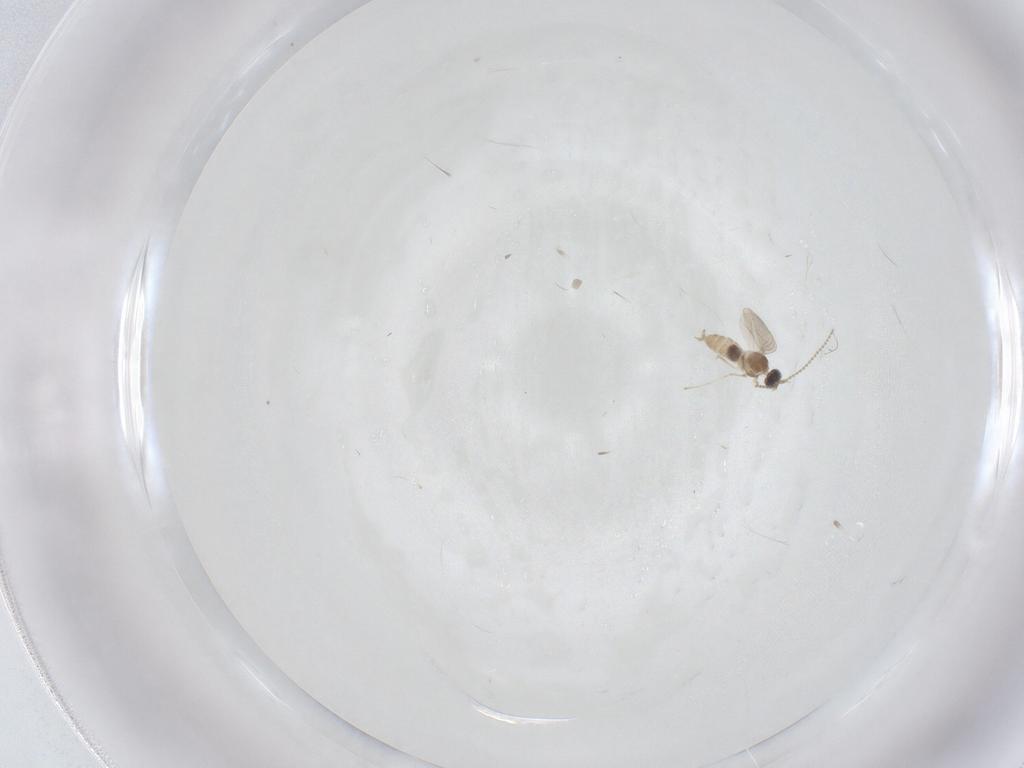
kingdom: Animalia
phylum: Arthropoda
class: Insecta
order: Diptera
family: Cecidomyiidae
